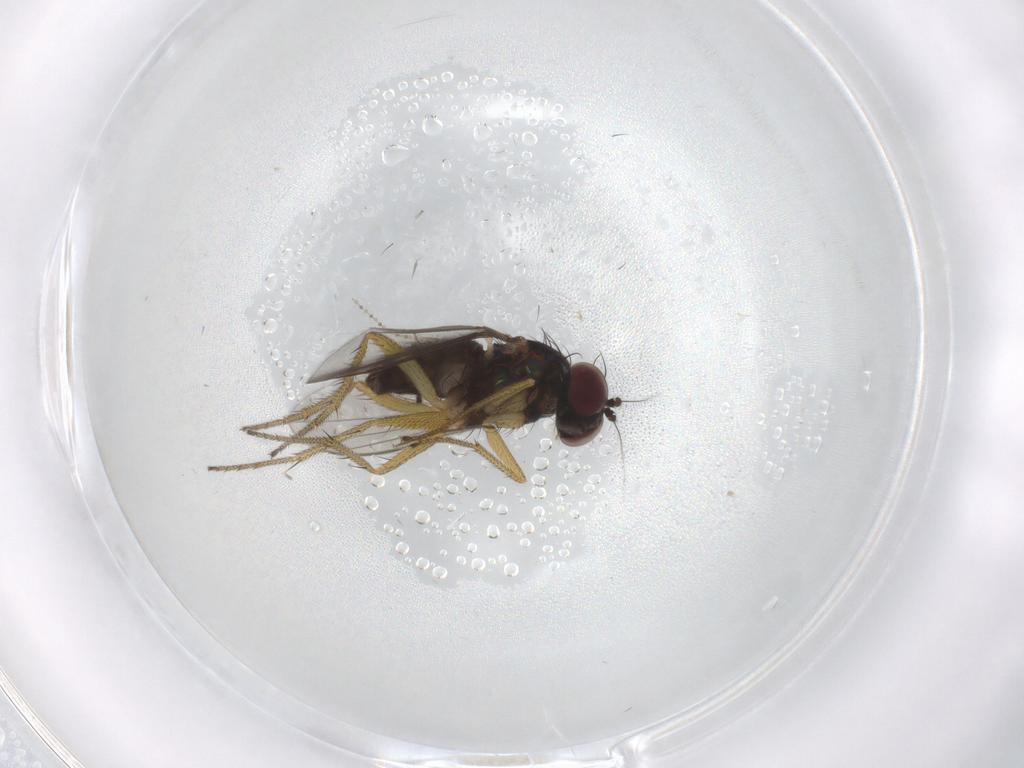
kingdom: Animalia
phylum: Arthropoda
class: Insecta
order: Diptera
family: Dolichopodidae
